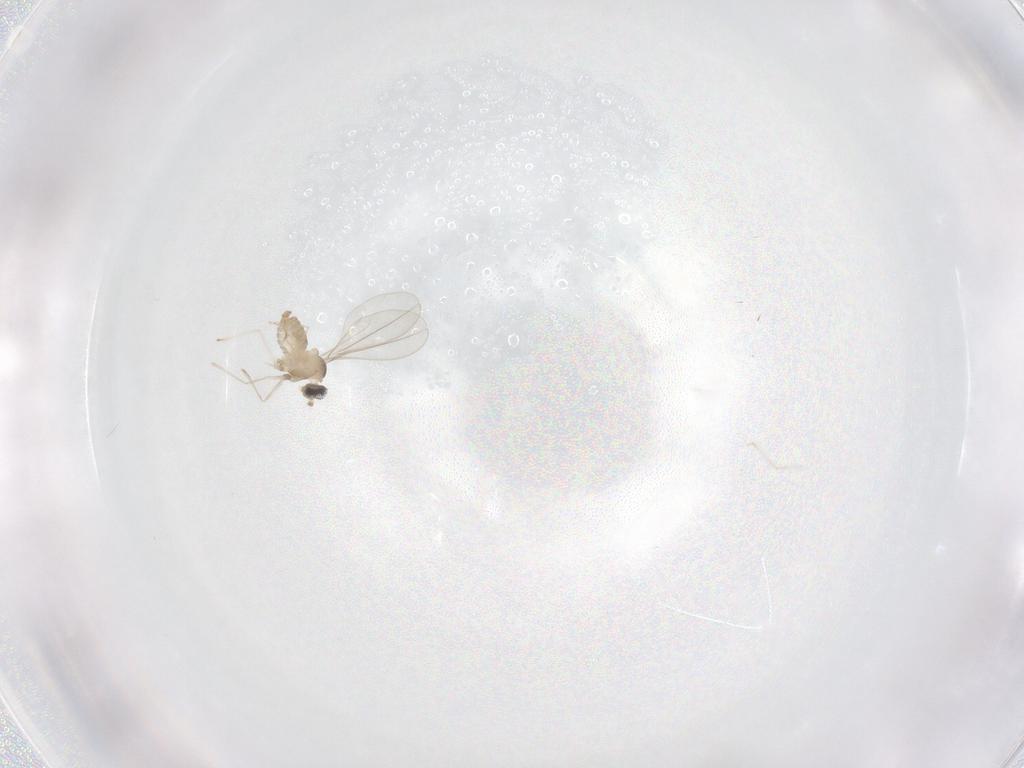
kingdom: Animalia
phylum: Arthropoda
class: Insecta
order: Diptera
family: Cecidomyiidae
